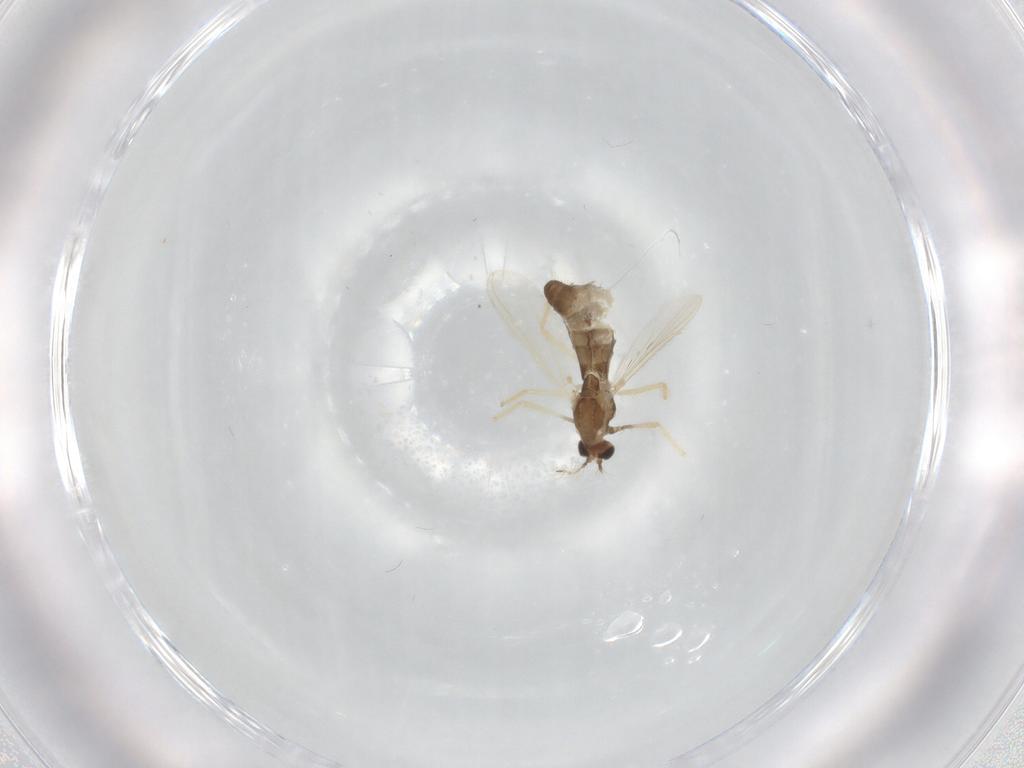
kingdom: Animalia
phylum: Arthropoda
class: Insecta
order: Diptera
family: Chironomidae
